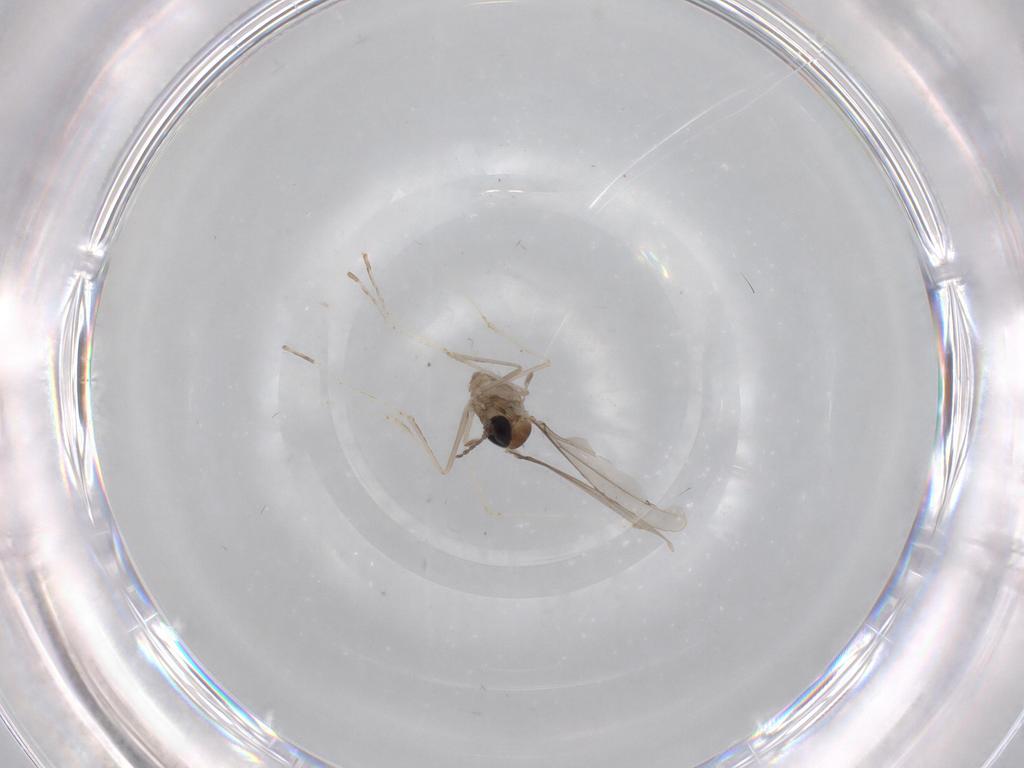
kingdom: Animalia
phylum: Arthropoda
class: Insecta
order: Diptera
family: Cecidomyiidae
